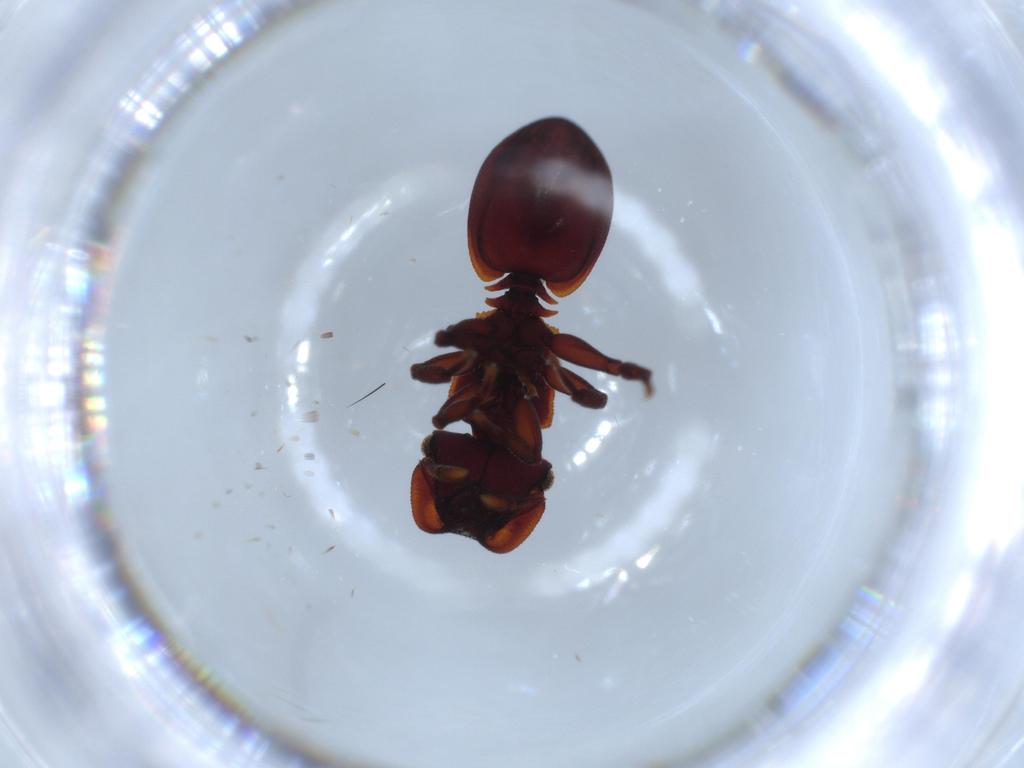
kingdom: Animalia
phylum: Arthropoda
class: Insecta
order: Hymenoptera
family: Formicidae
